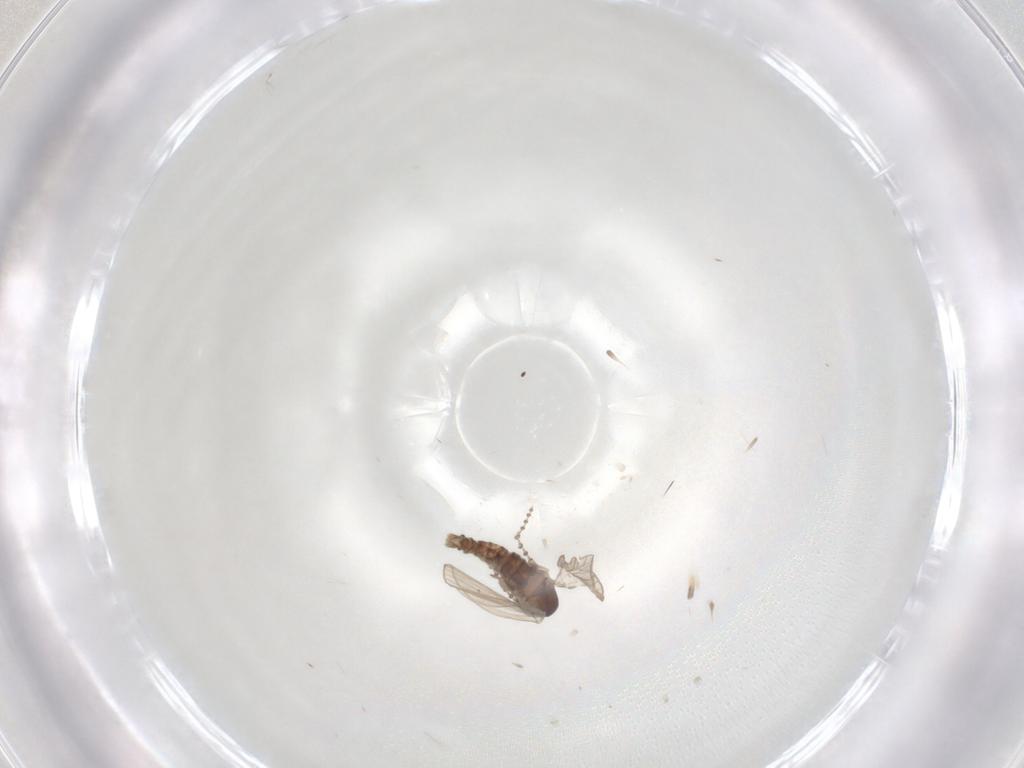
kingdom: Animalia
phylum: Arthropoda
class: Insecta
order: Diptera
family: Psychodidae
